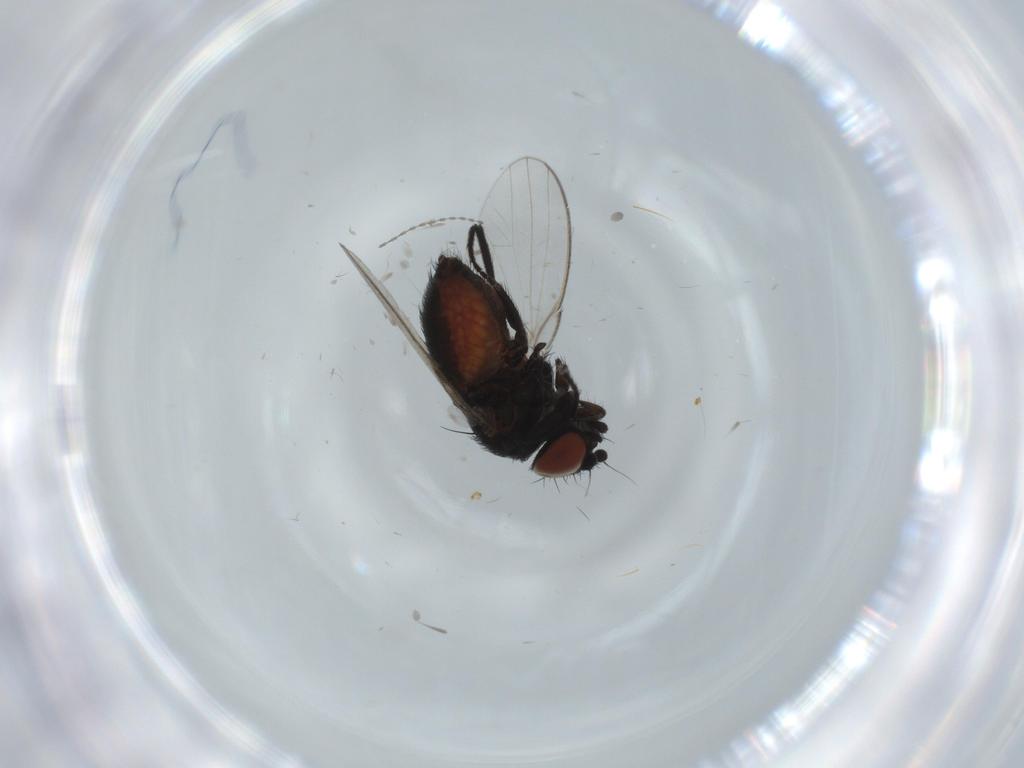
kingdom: Animalia
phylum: Arthropoda
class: Insecta
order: Diptera
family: Milichiidae
